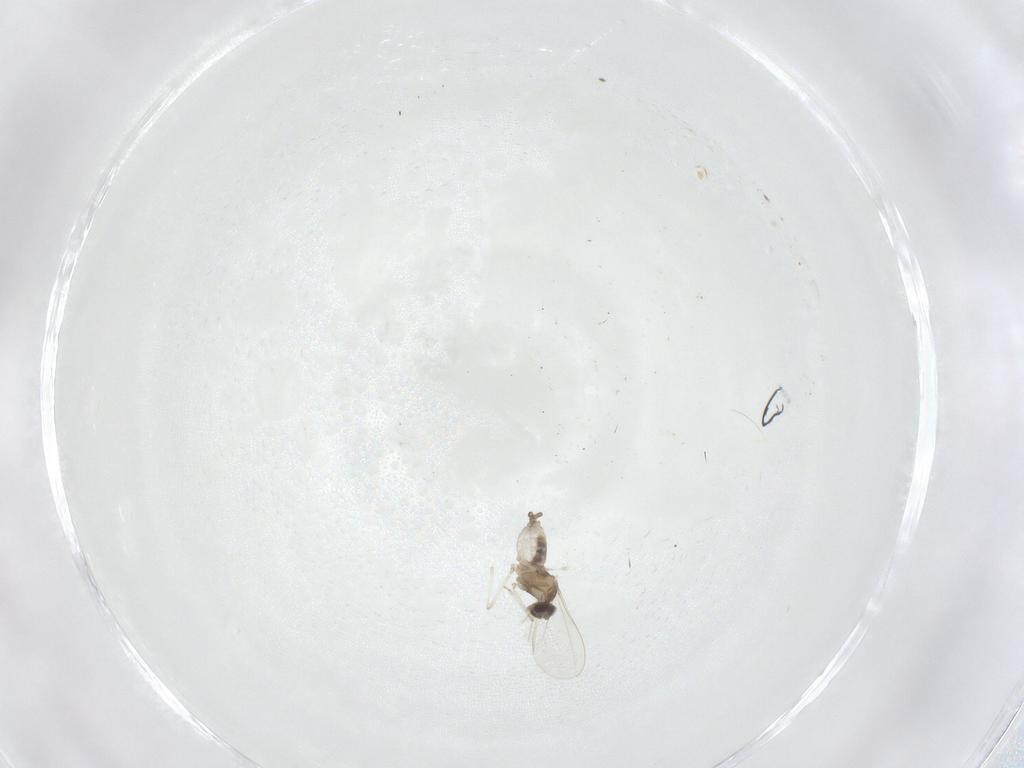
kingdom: Animalia
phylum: Arthropoda
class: Insecta
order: Diptera
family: Cecidomyiidae
